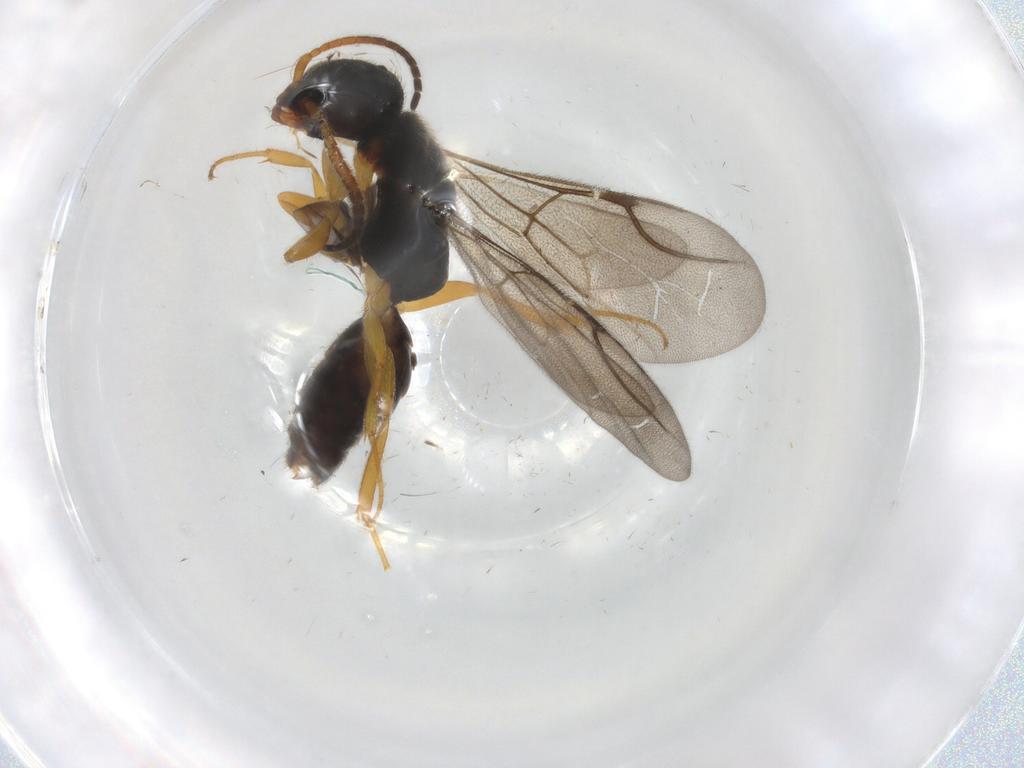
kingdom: Animalia
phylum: Arthropoda
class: Insecta
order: Hymenoptera
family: Bethylidae
